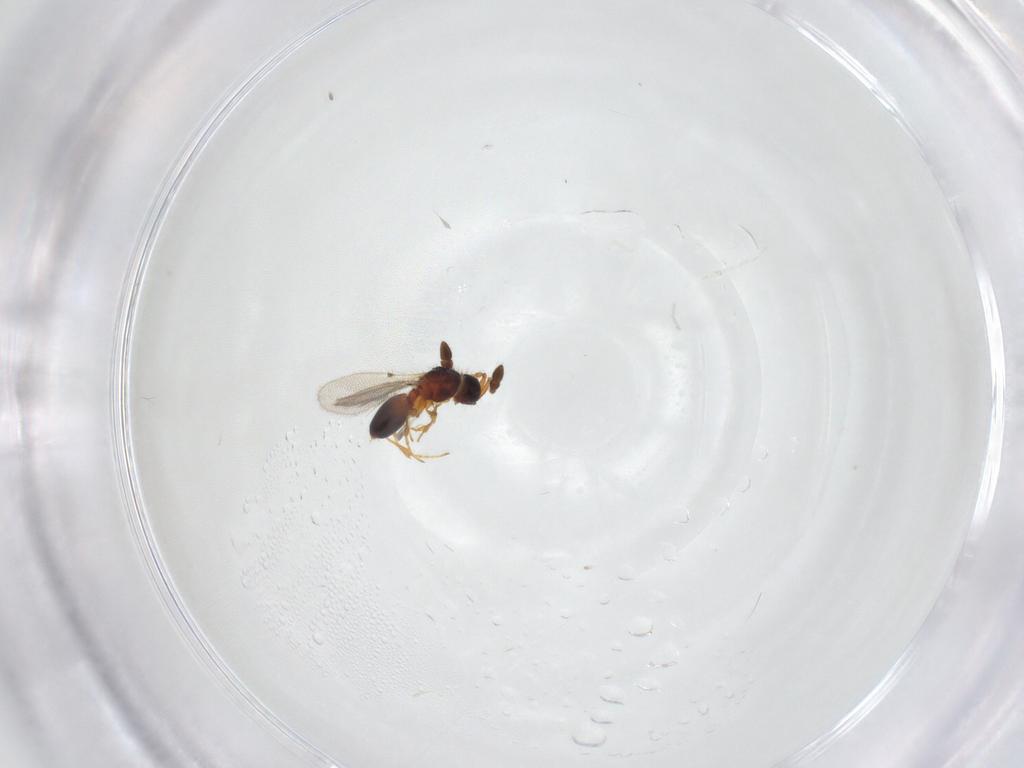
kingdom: Animalia
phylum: Arthropoda
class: Insecta
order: Hymenoptera
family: Diapriidae
